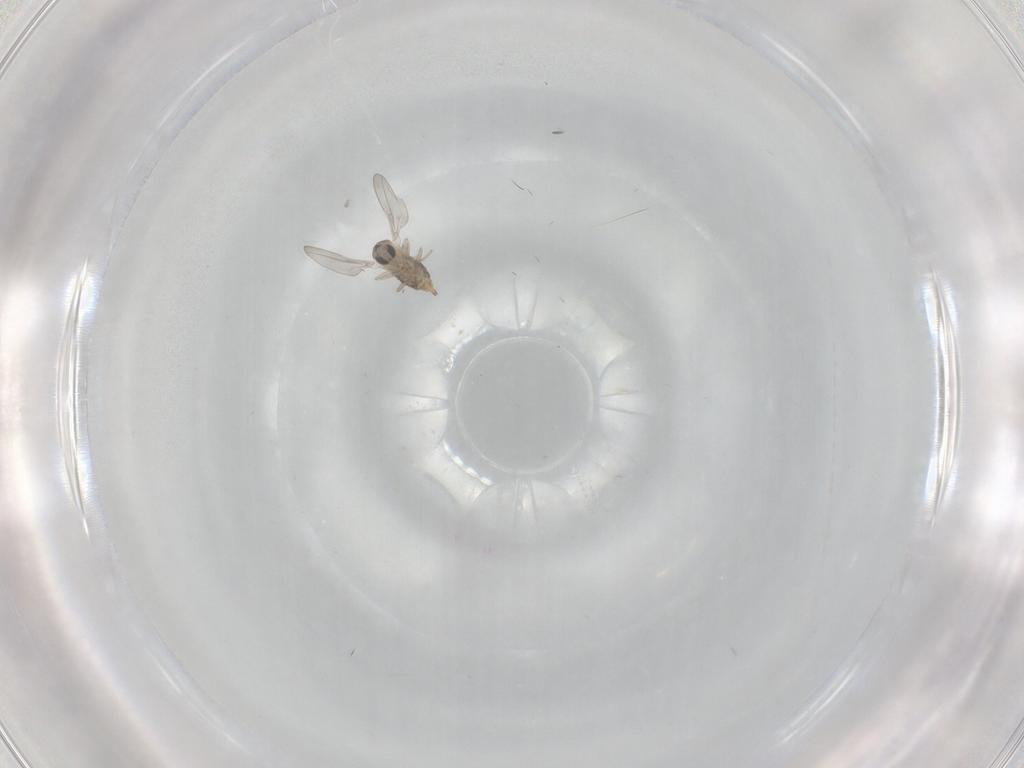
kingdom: Animalia
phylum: Arthropoda
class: Insecta
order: Diptera
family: Cecidomyiidae
